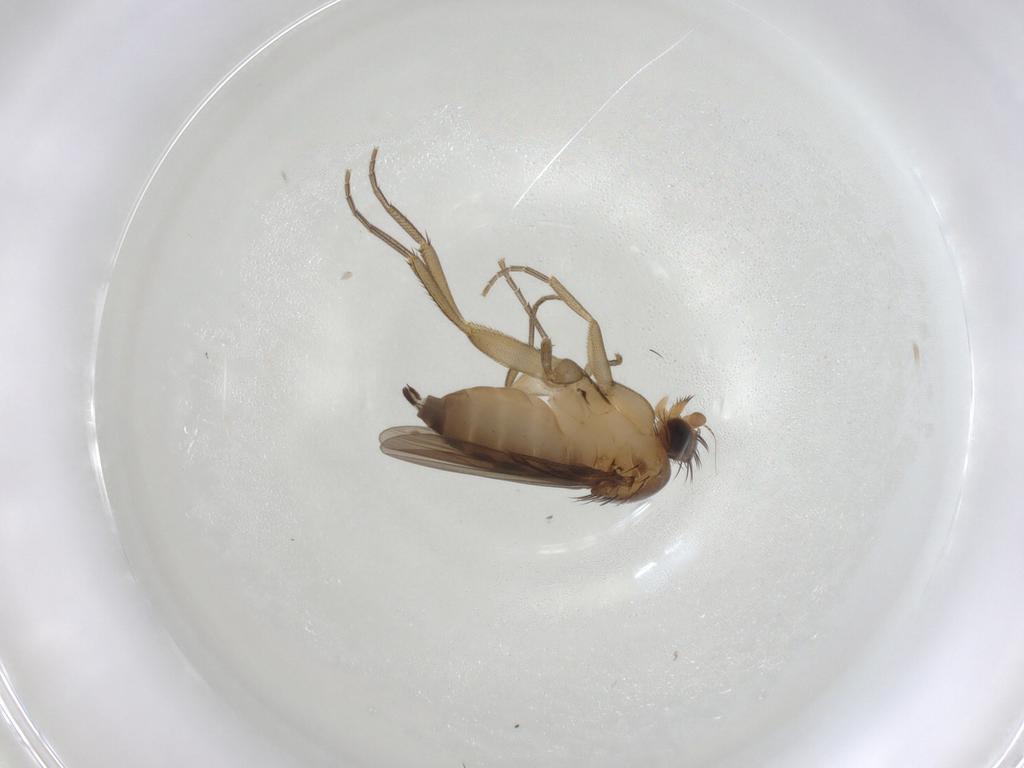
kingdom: Animalia
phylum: Arthropoda
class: Insecta
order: Diptera
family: Phoridae
